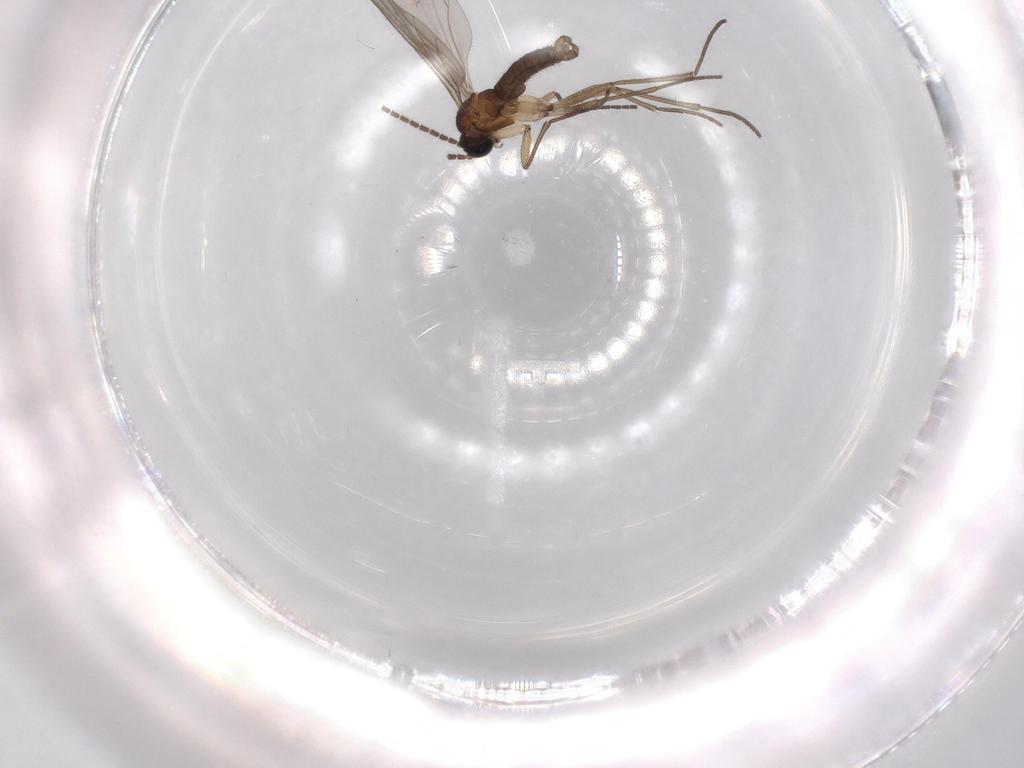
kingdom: Animalia
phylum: Arthropoda
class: Insecta
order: Diptera
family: Sciaridae
